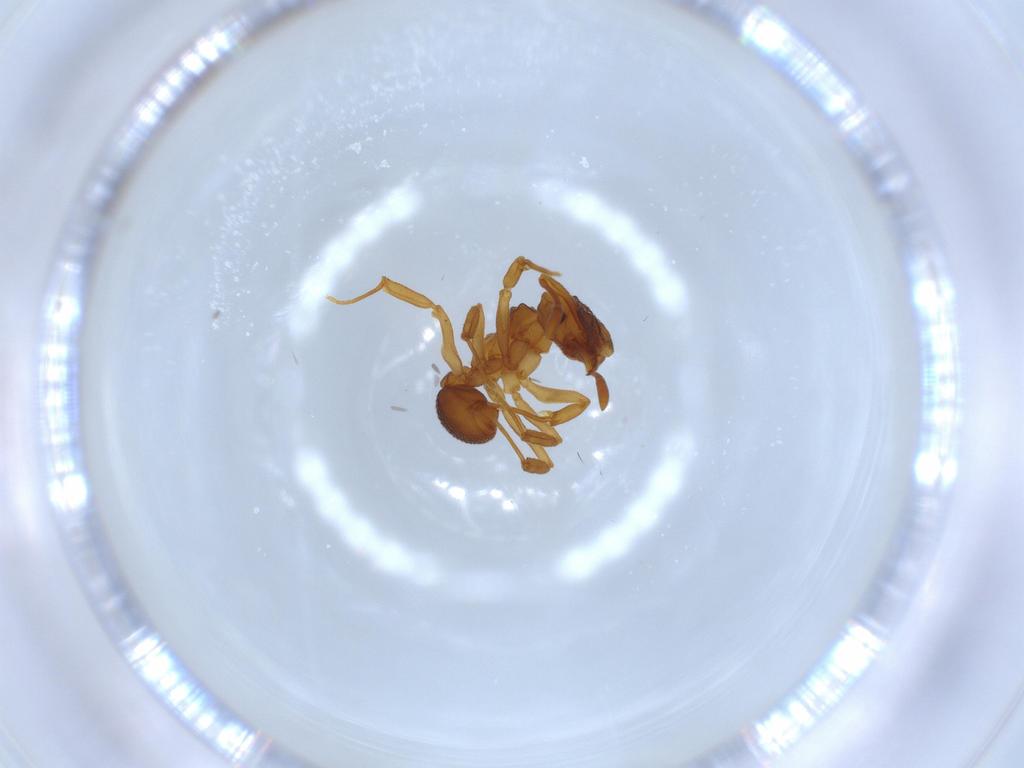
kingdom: Animalia
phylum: Arthropoda
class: Insecta
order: Hymenoptera
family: Formicidae
